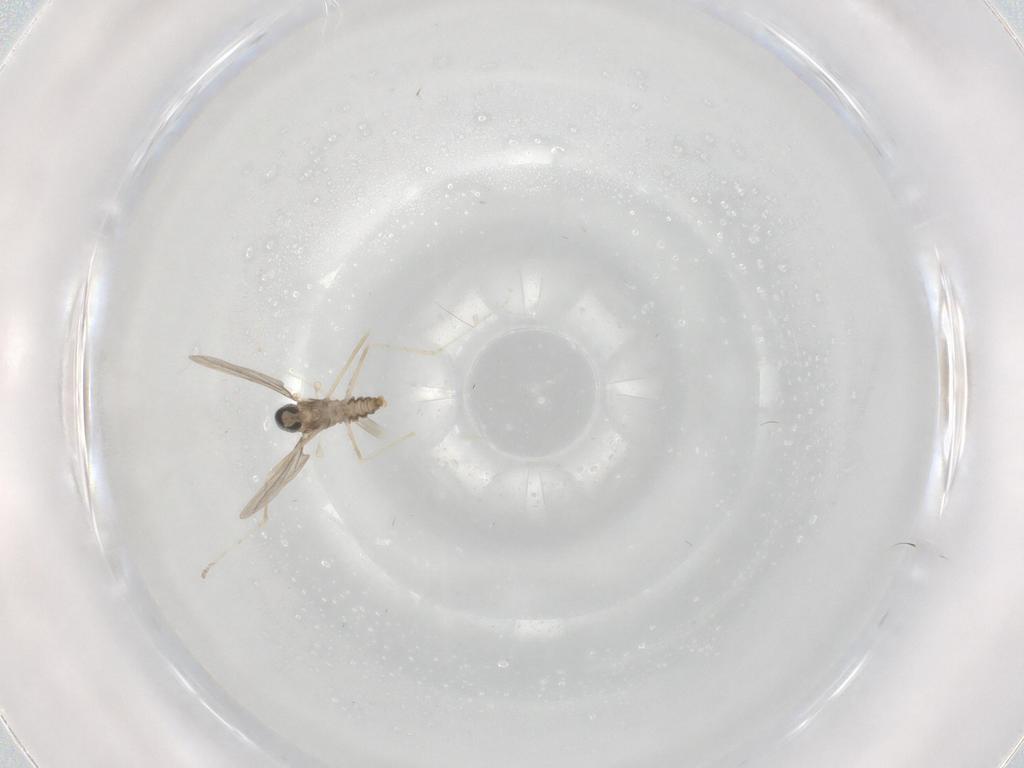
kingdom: Animalia
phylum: Arthropoda
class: Insecta
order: Diptera
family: Cecidomyiidae
